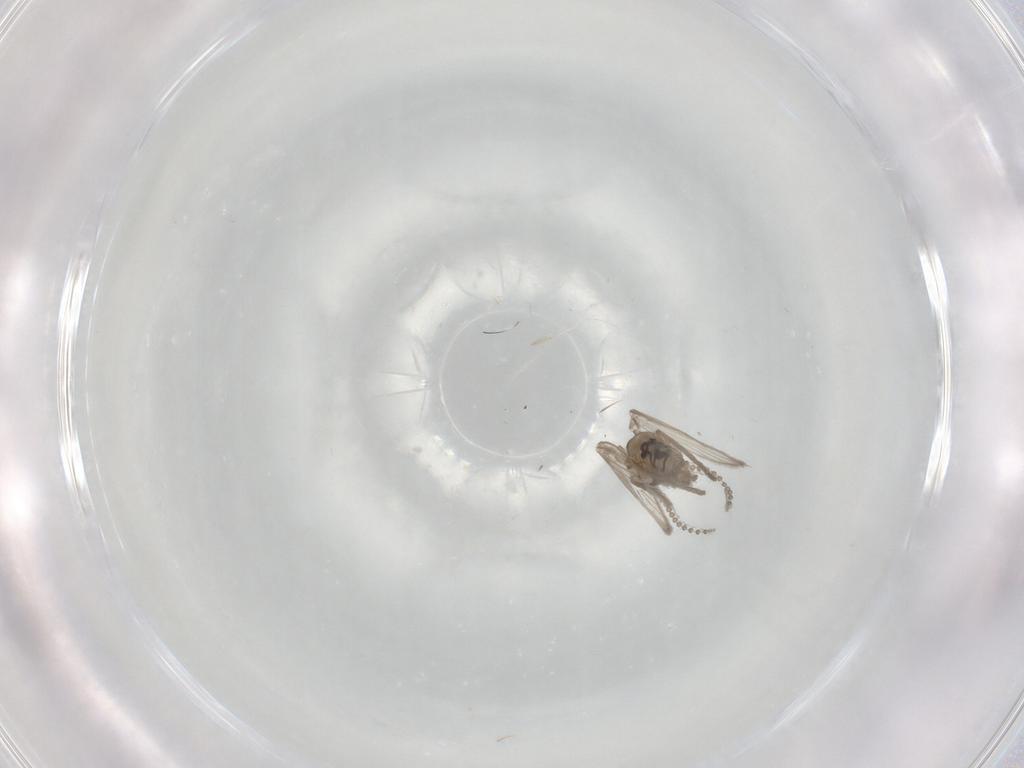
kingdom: Animalia
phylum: Arthropoda
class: Insecta
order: Diptera
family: Psychodidae
